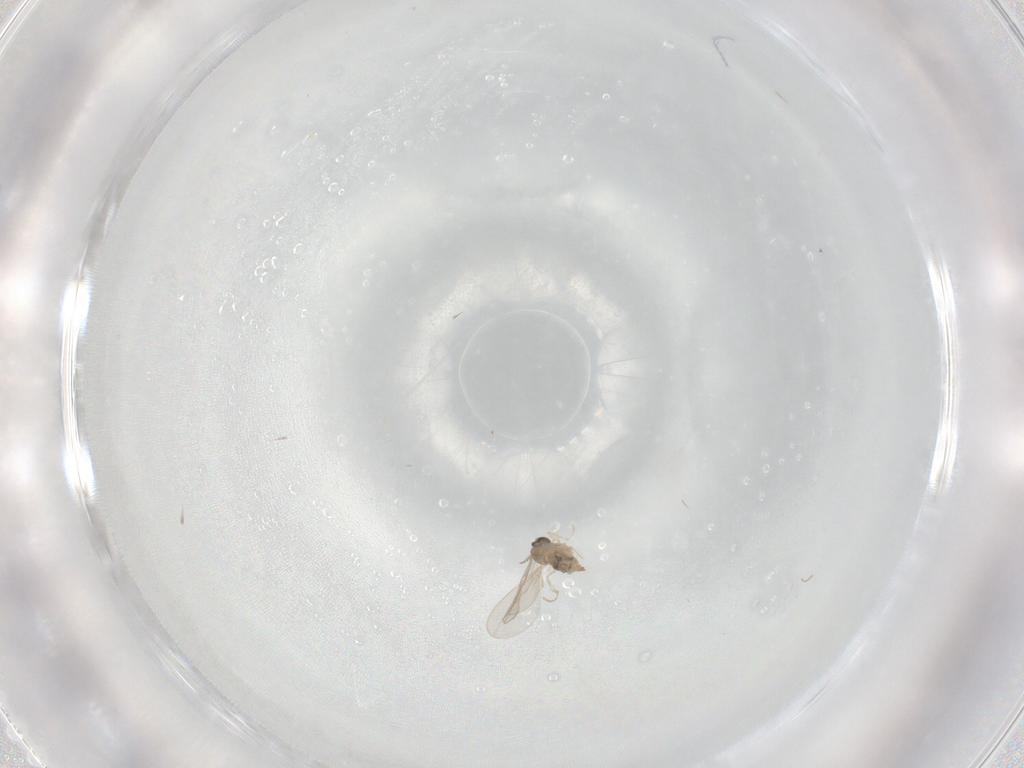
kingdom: Animalia
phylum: Arthropoda
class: Insecta
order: Diptera
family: Cecidomyiidae
